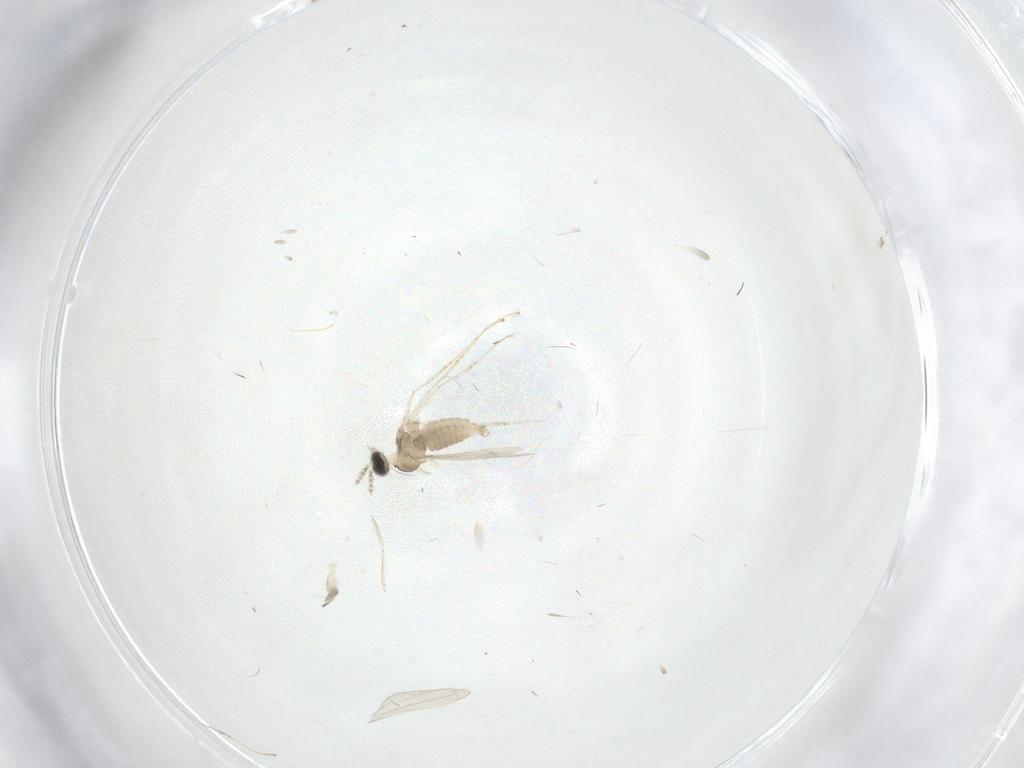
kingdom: Animalia
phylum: Arthropoda
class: Insecta
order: Diptera
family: Cecidomyiidae
